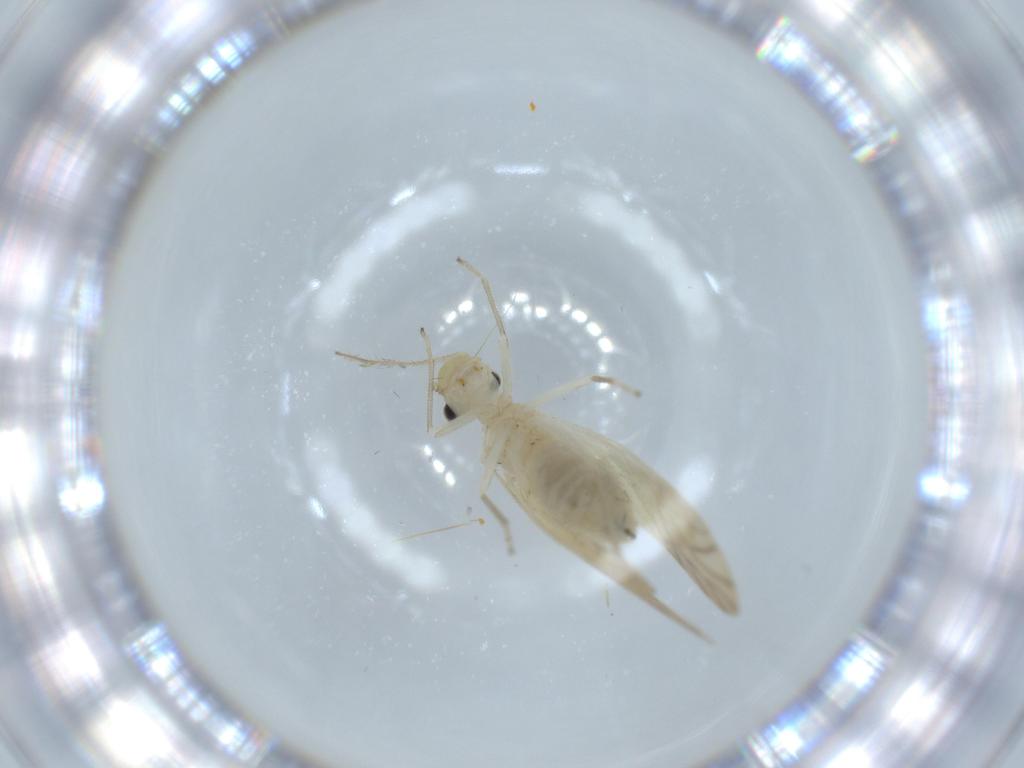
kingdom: Animalia
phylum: Arthropoda
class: Insecta
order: Psocodea
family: Caeciliusidae
